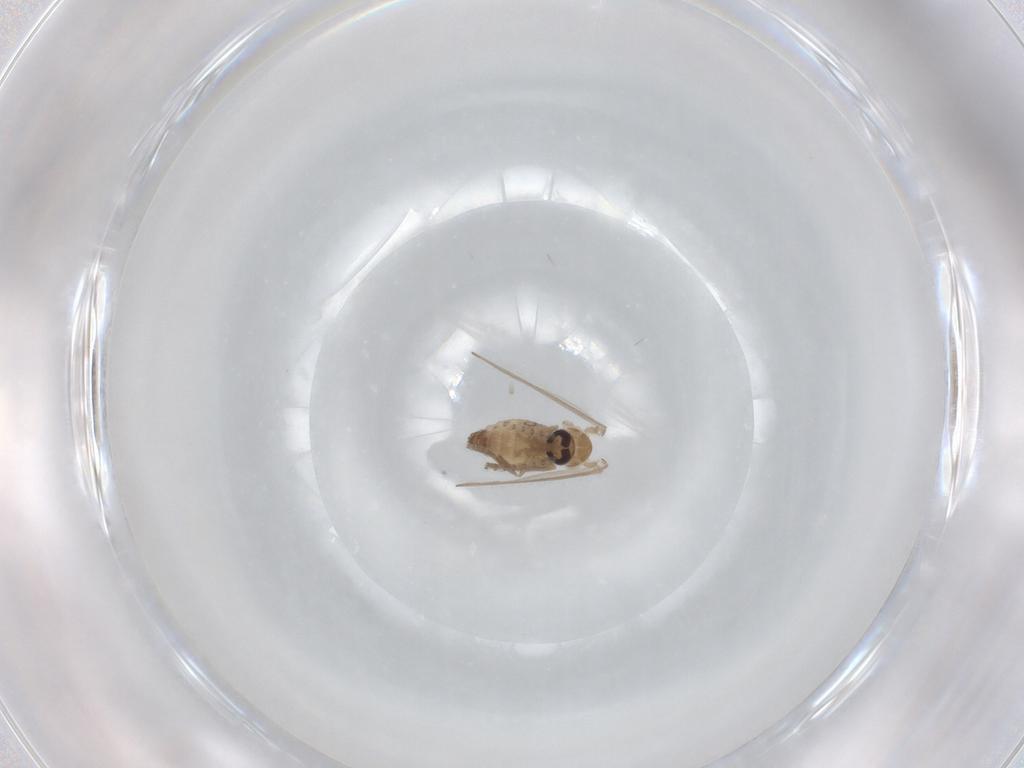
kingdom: Animalia
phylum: Arthropoda
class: Insecta
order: Diptera
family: Psychodidae
